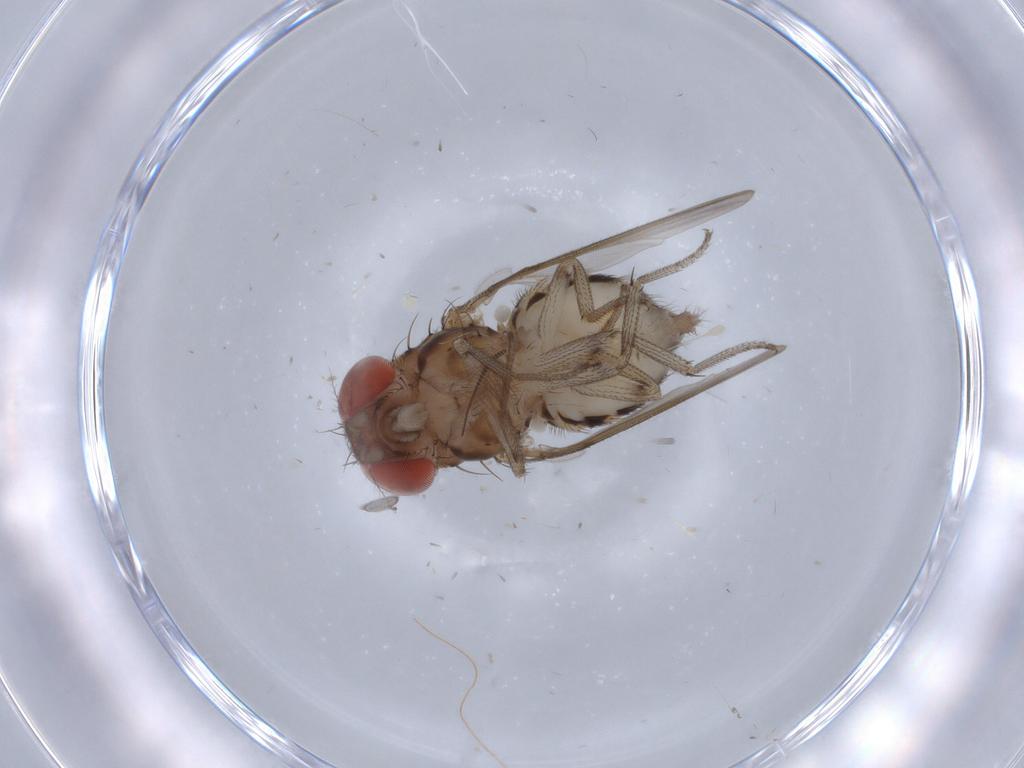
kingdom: Animalia
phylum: Arthropoda
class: Insecta
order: Diptera
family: Drosophilidae
